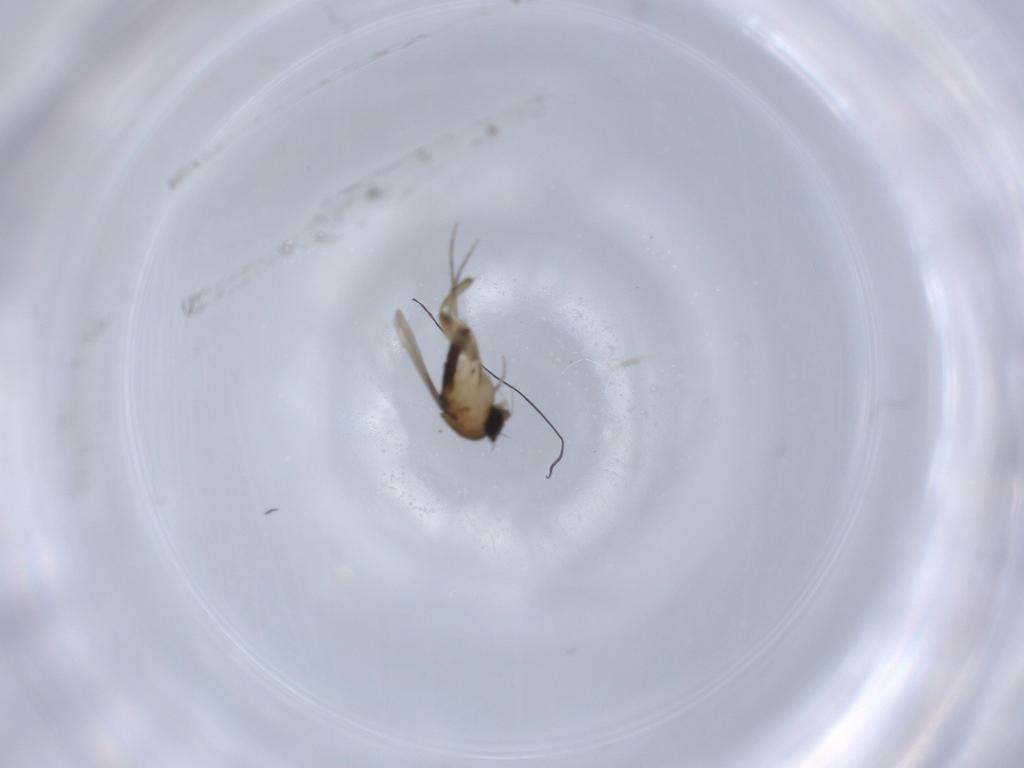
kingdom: Animalia
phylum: Arthropoda
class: Insecta
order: Diptera
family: Phoridae
